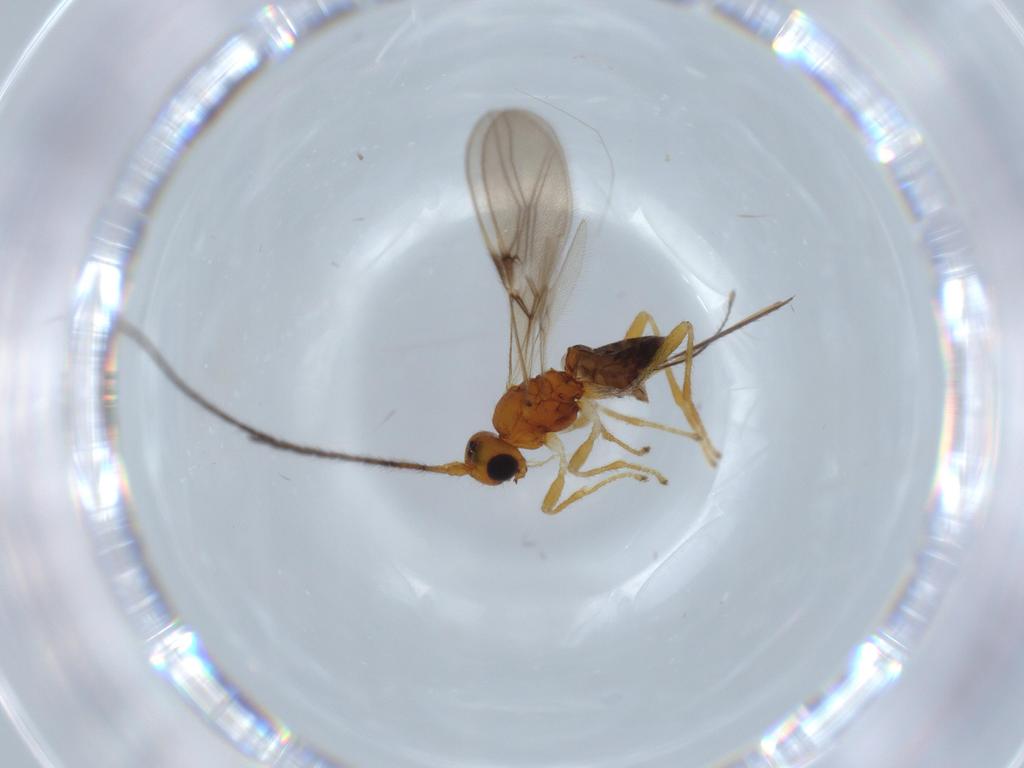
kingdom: Animalia
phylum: Arthropoda
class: Insecta
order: Hymenoptera
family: Braconidae
